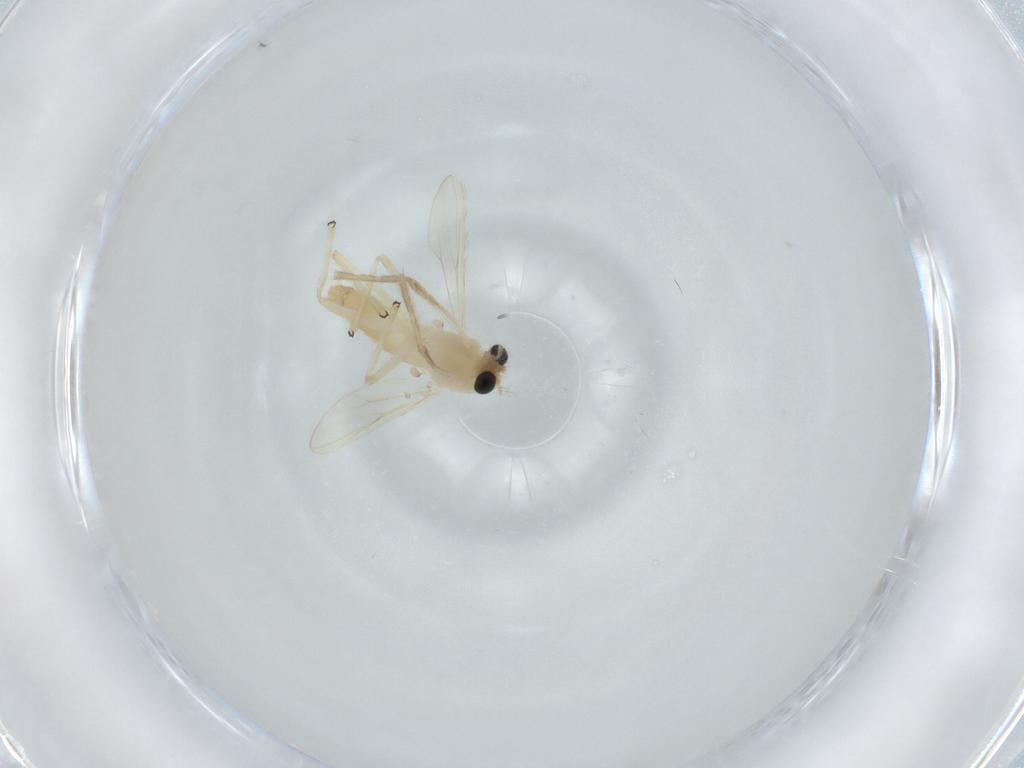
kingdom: Animalia
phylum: Arthropoda
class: Insecta
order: Diptera
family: Chironomidae
